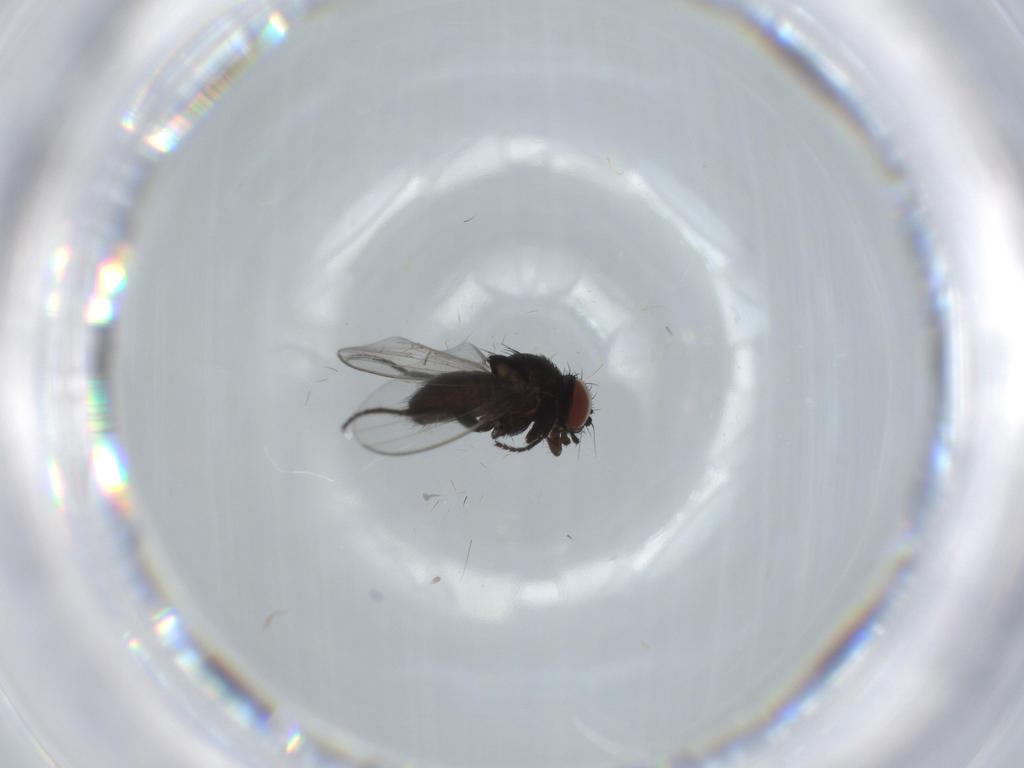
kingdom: Animalia
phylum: Arthropoda
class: Insecta
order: Diptera
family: Milichiidae
